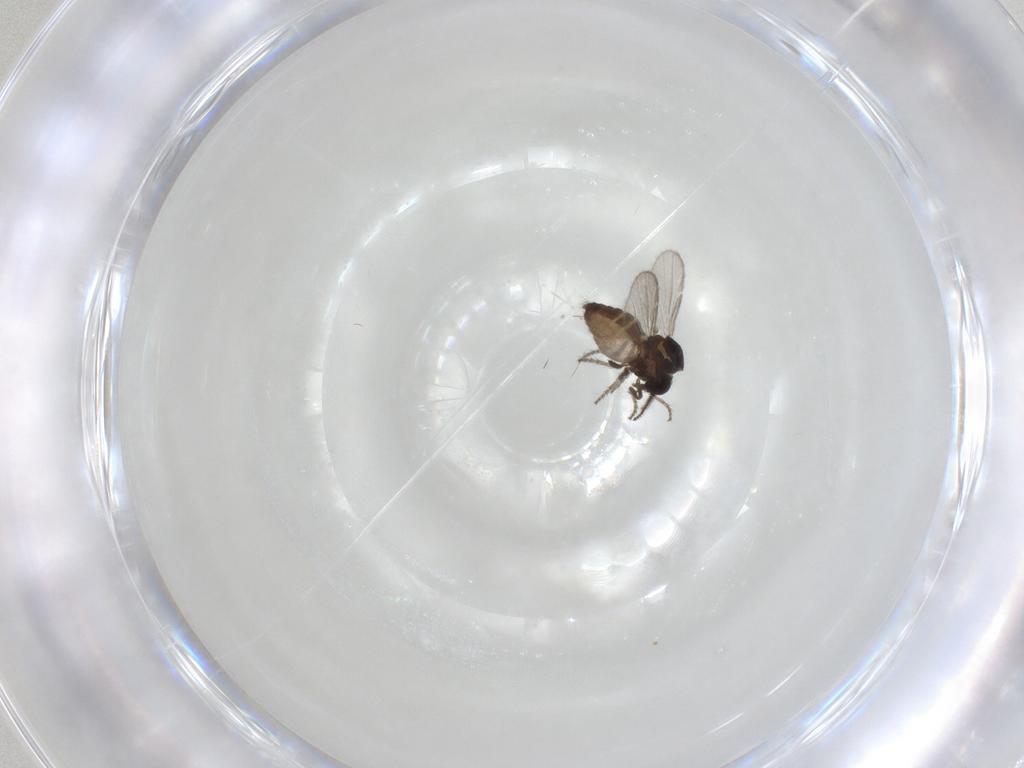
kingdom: Animalia
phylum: Arthropoda
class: Insecta
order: Diptera
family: Ceratopogonidae
